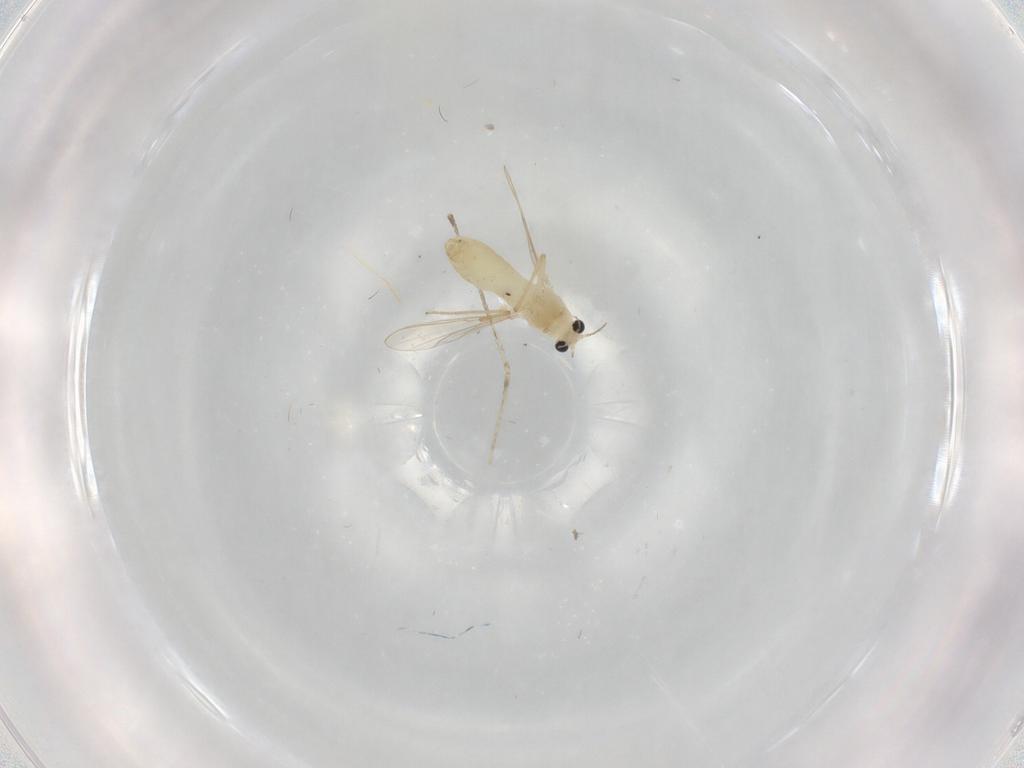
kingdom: Animalia
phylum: Arthropoda
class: Insecta
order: Diptera
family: Chironomidae
